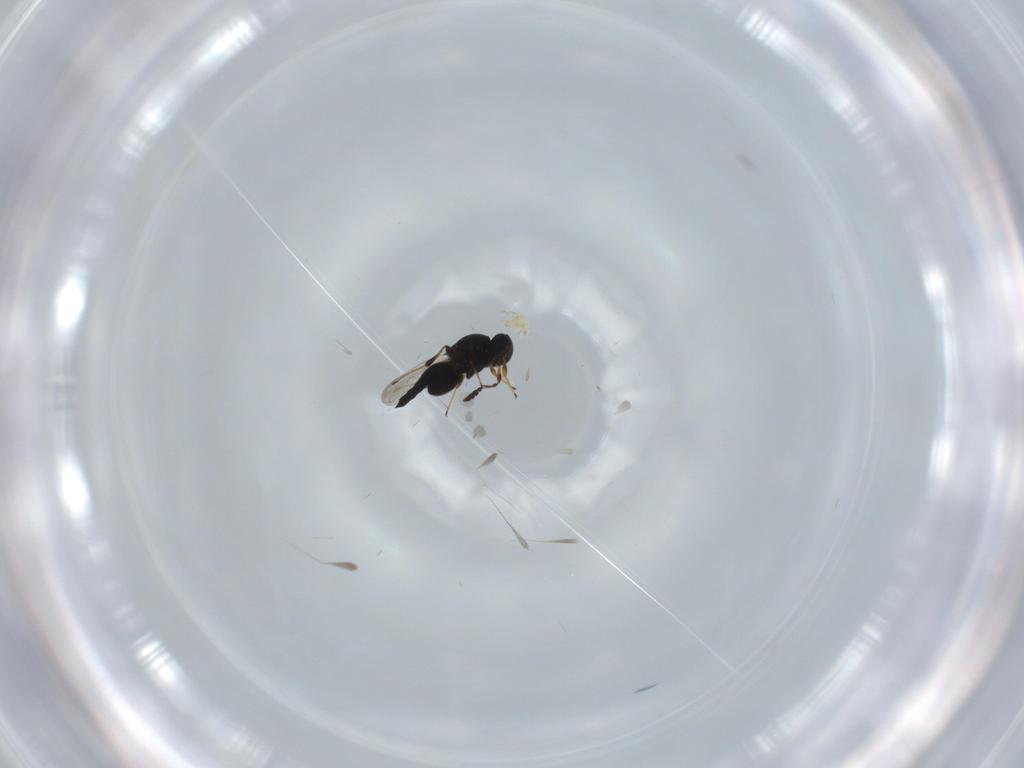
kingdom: Animalia
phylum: Arthropoda
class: Insecta
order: Hymenoptera
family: Platygastridae
